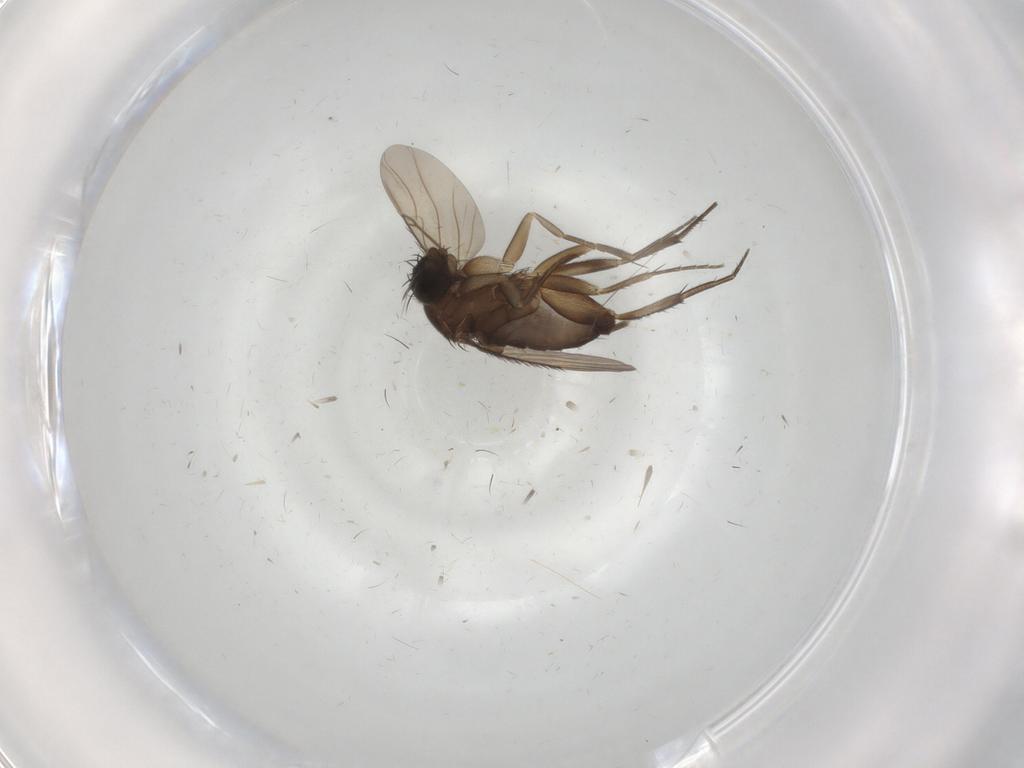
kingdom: Animalia
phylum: Arthropoda
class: Insecta
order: Diptera
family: Phoridae
